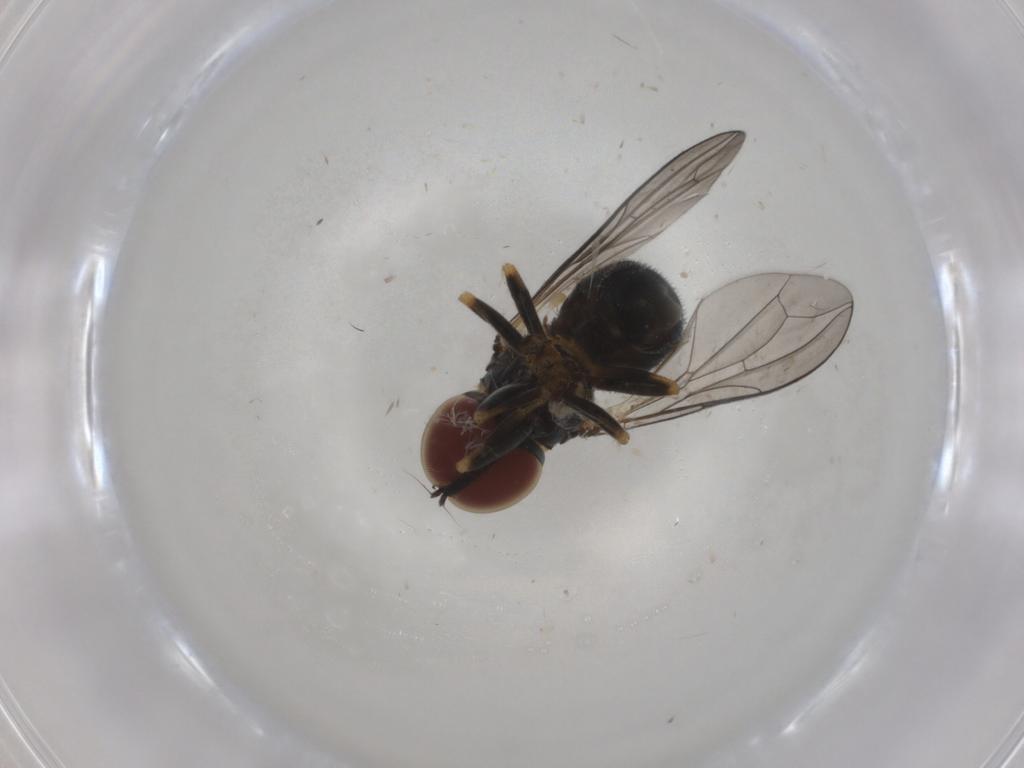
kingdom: Animalia
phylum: Arthropoda
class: Insecta
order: Diptera
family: Pipunculidae
